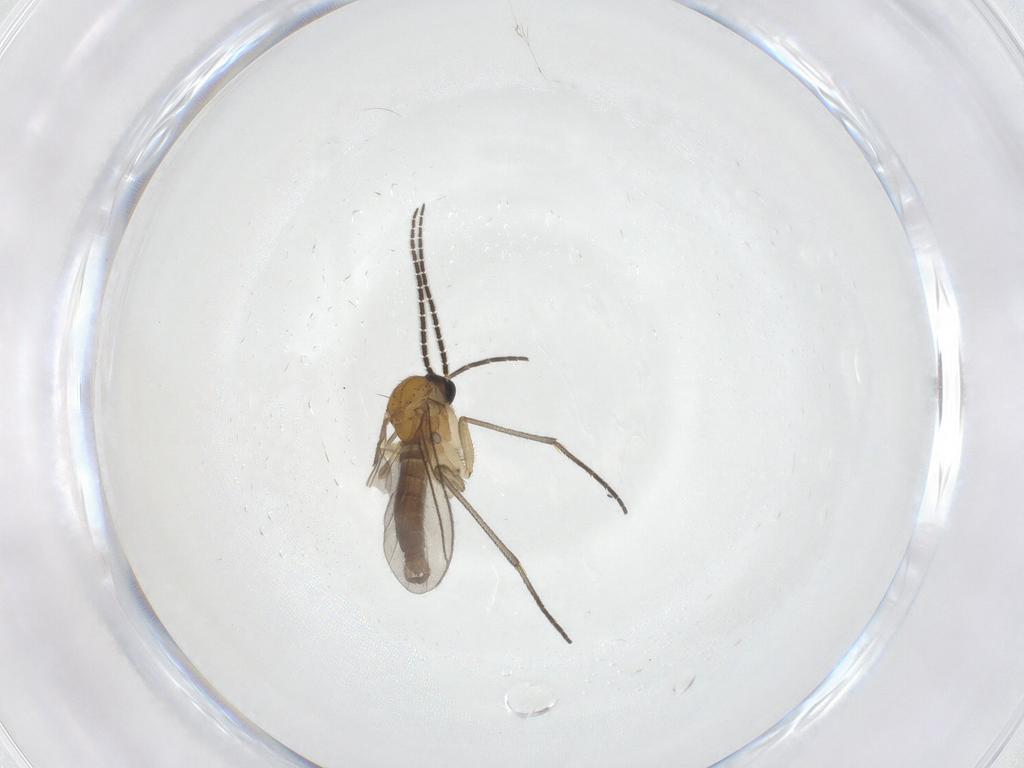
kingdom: Animalia
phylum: Arthropoda
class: Insecta
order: Diptera
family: Sciaridae
